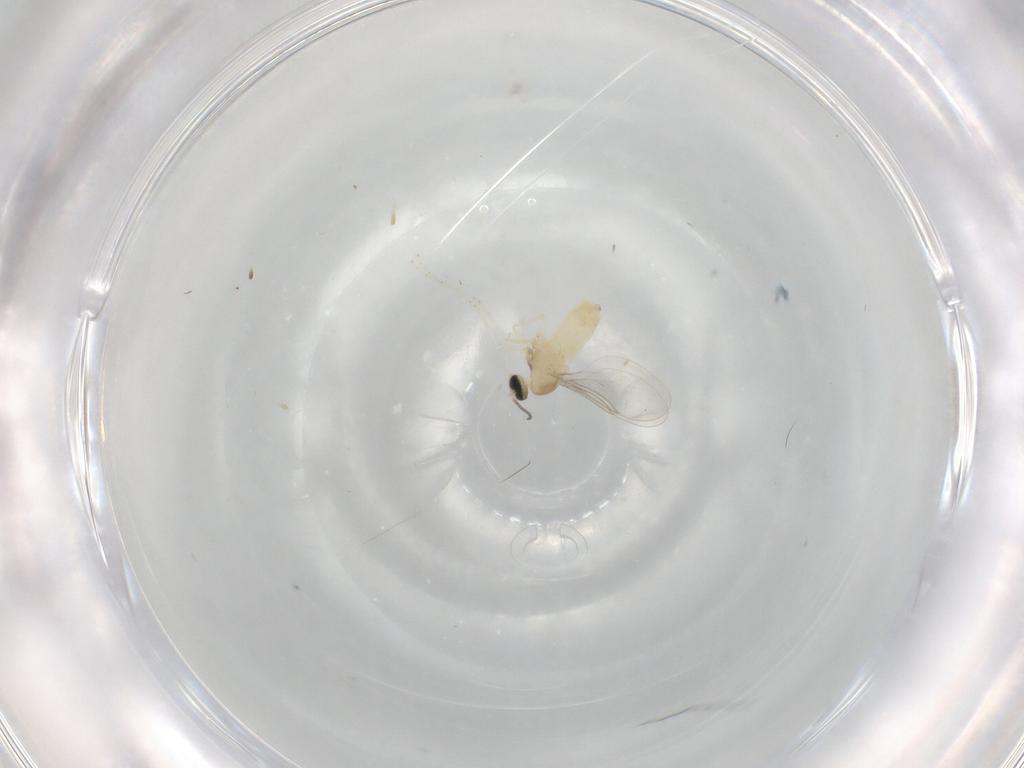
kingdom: Animalia
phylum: Arthropoda
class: Insecta
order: Diptera
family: Cecidomyiidae
